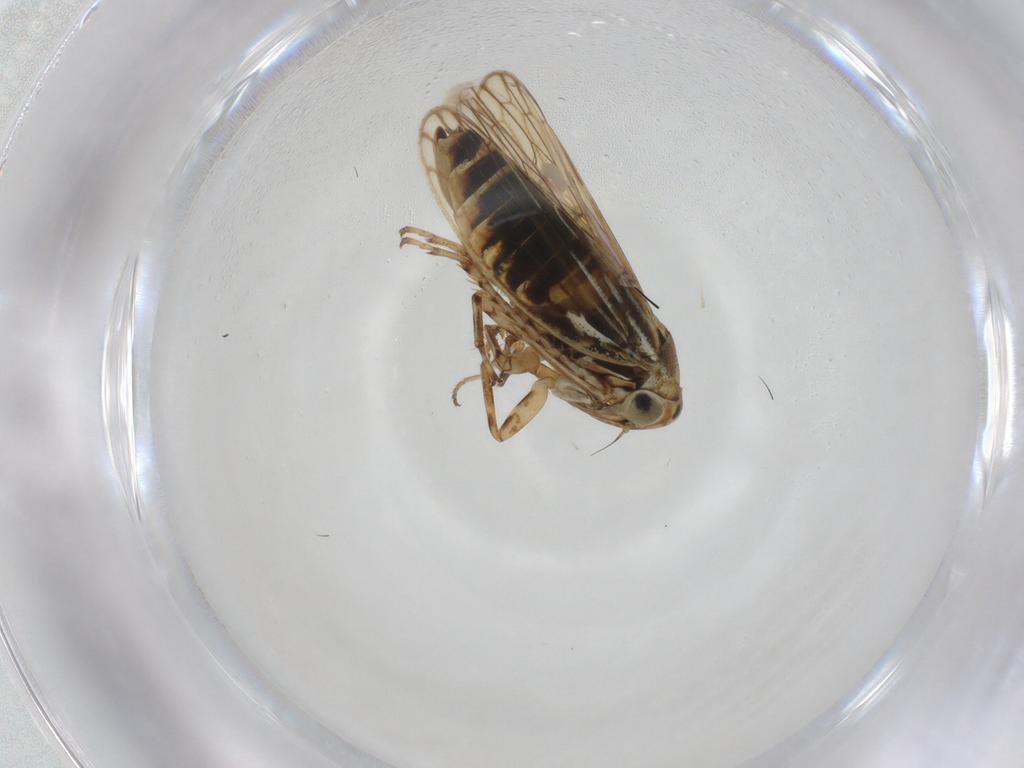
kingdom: Animalia
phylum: Arthropoda
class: Insecta
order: Hemiptera
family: Cicadellidae
